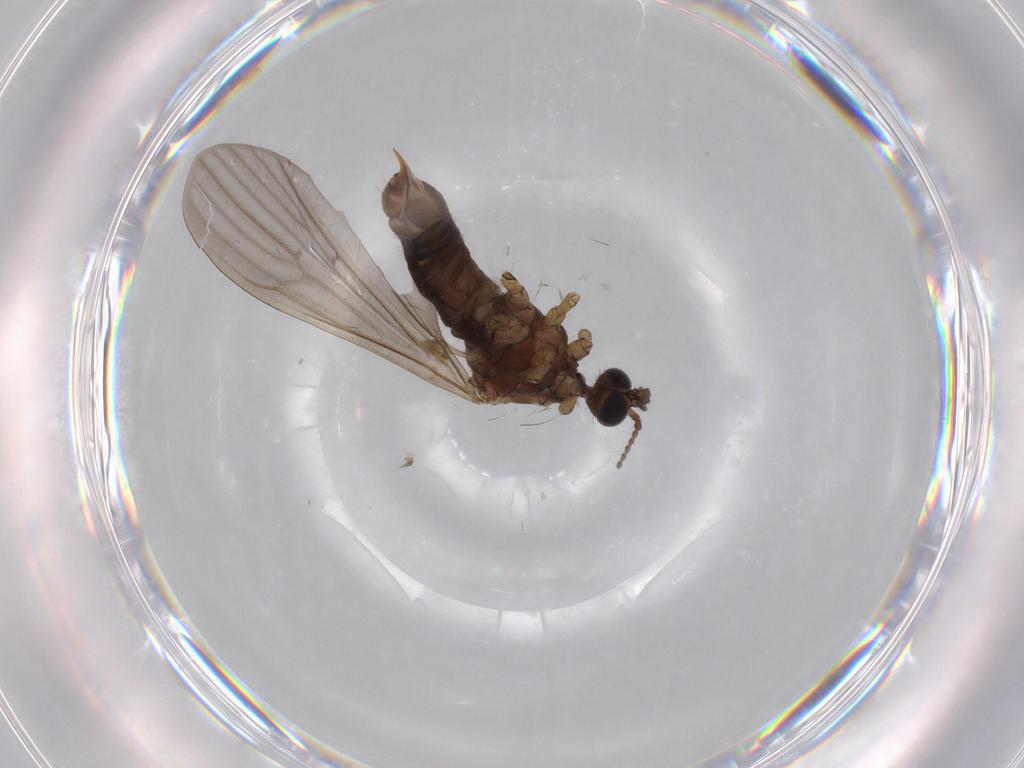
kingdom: Animalia
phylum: Arthropoda
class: Insecta
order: Diptera
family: Limoniidae
